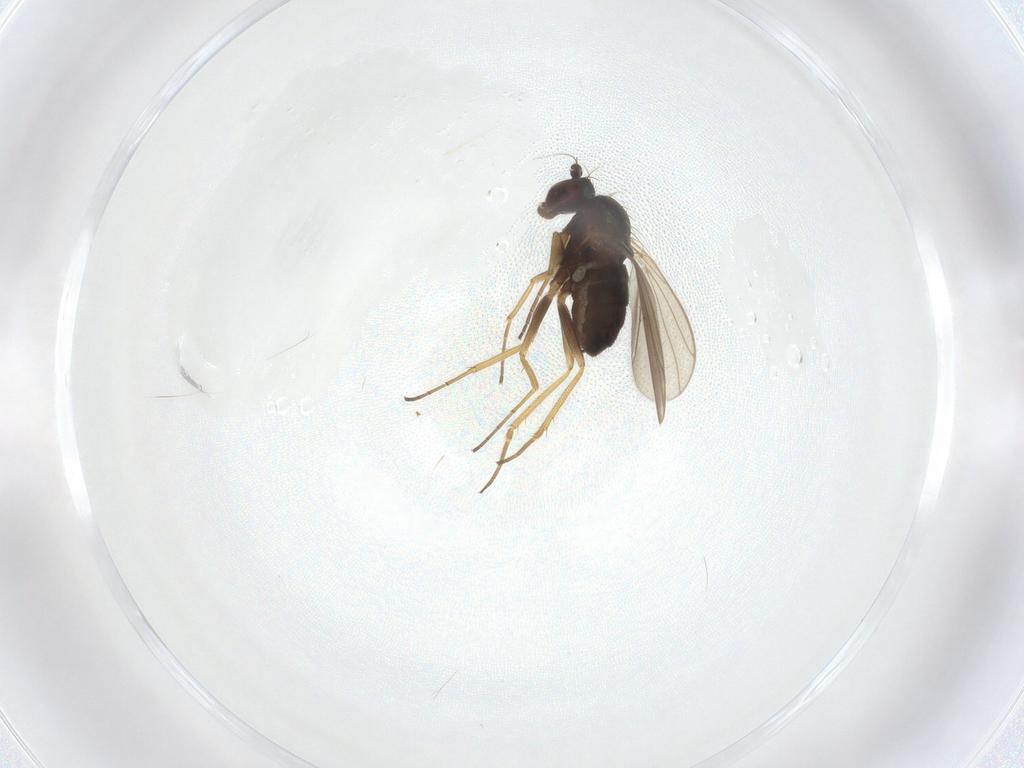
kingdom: Animalia
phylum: Arthropoda
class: Insecta
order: Diptera
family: Dolichopodidae
